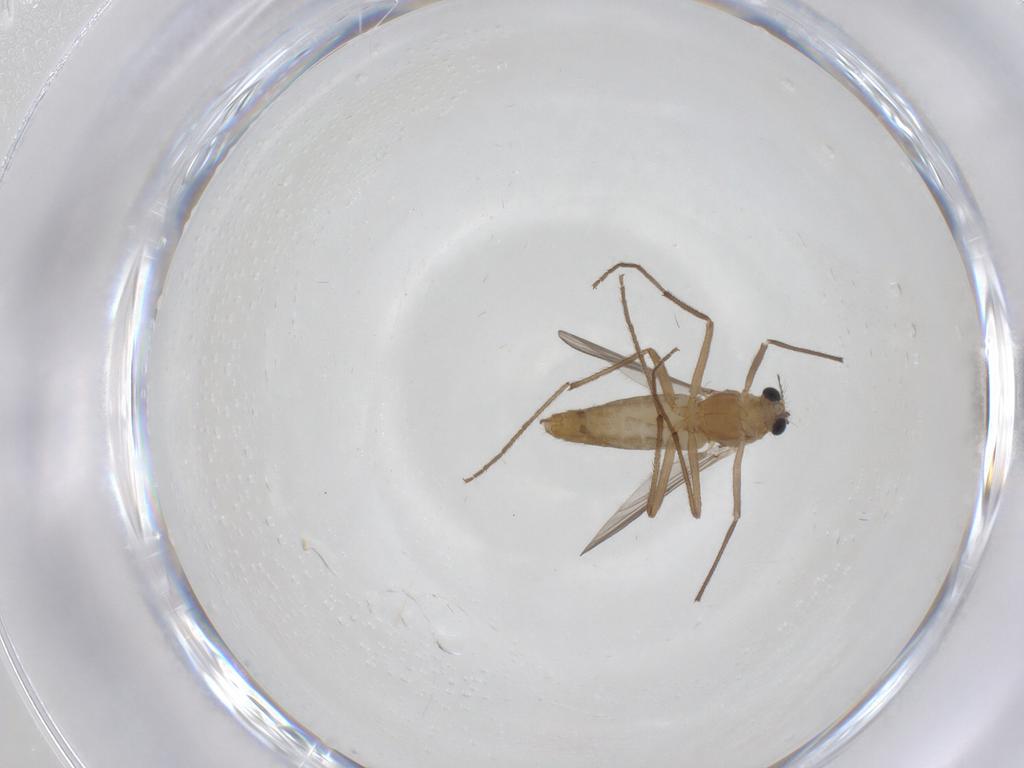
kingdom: Animalia
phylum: Arthropoda
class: Insecta
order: Diptera
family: Chironomidae
